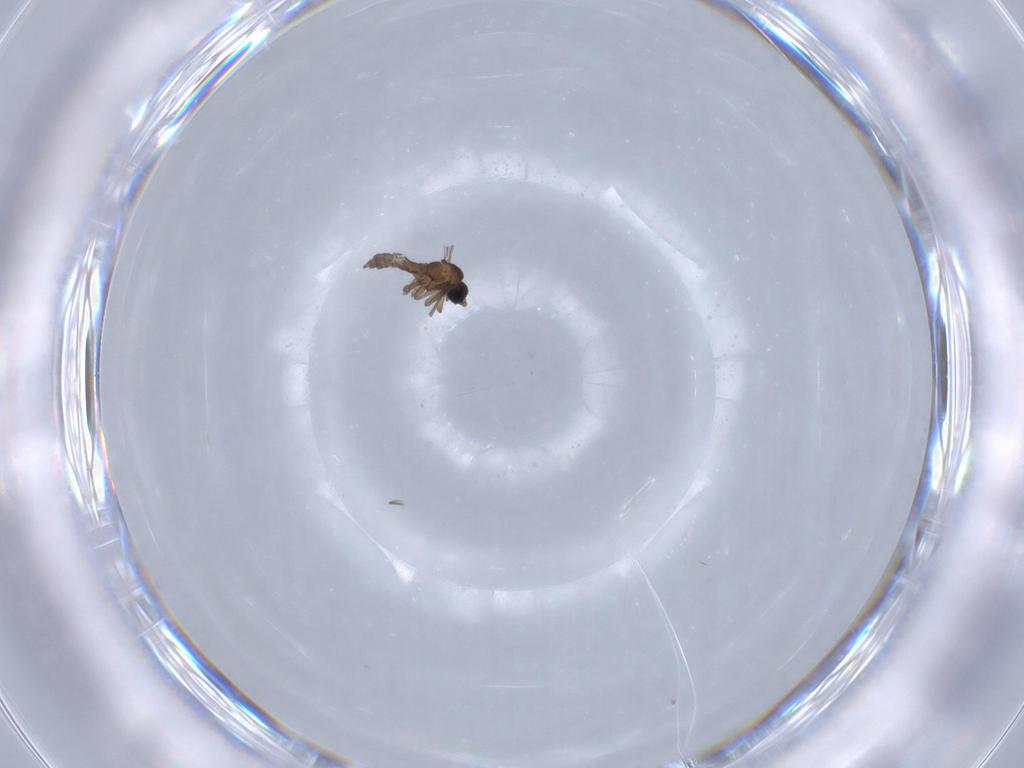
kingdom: Animalia
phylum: Arthropoda
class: Insecta
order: Diptera
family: Sciaridae
